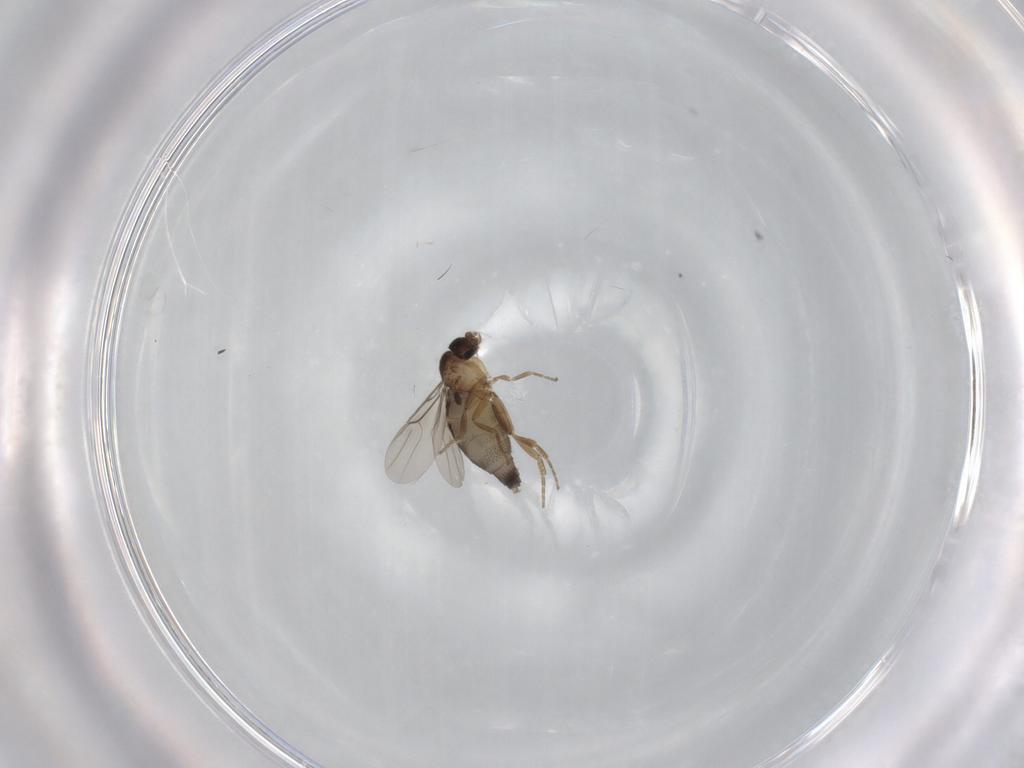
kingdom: Animalia
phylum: Arthropoda
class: Insecta
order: Diptera
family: Phoridae
